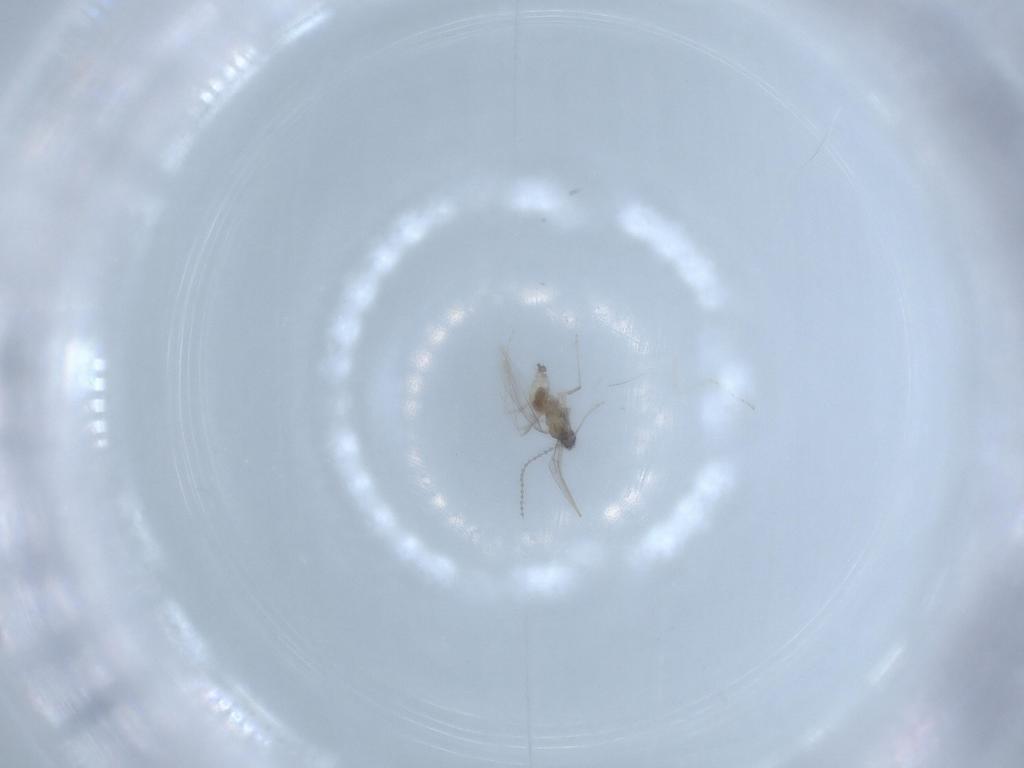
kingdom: Animalia
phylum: Arthropoda
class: Insecta
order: Diptera
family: Cecidomyiidae
